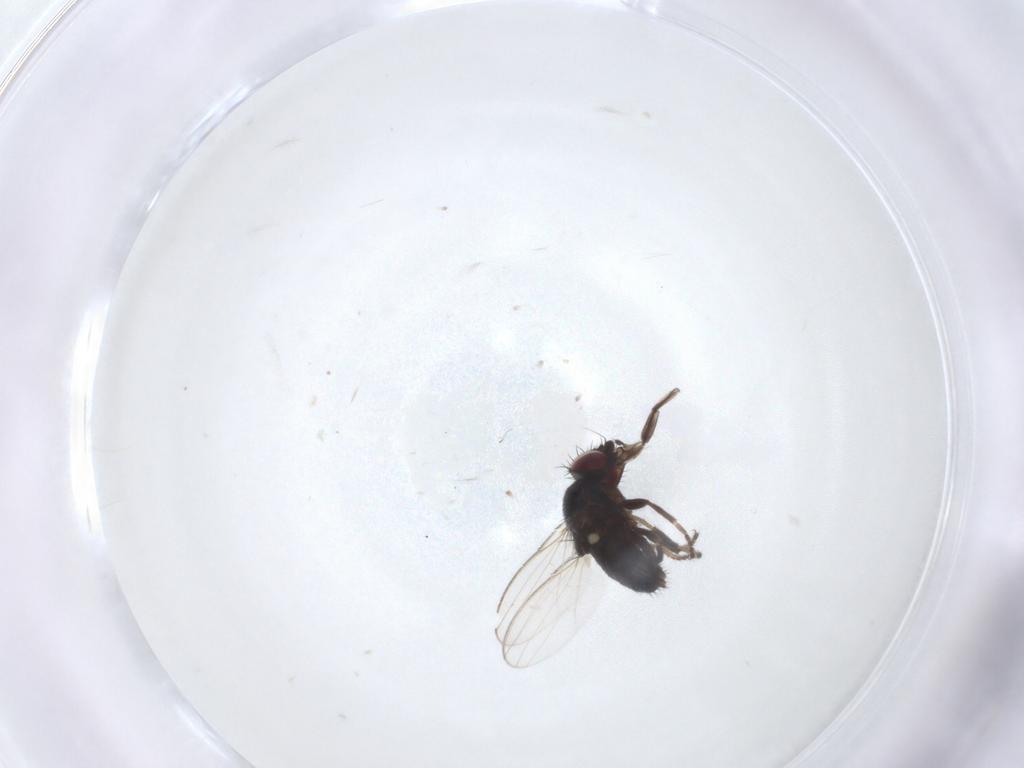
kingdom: Animalia
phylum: Arthropoda
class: Insecta
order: Diptera
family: Milichiidae
